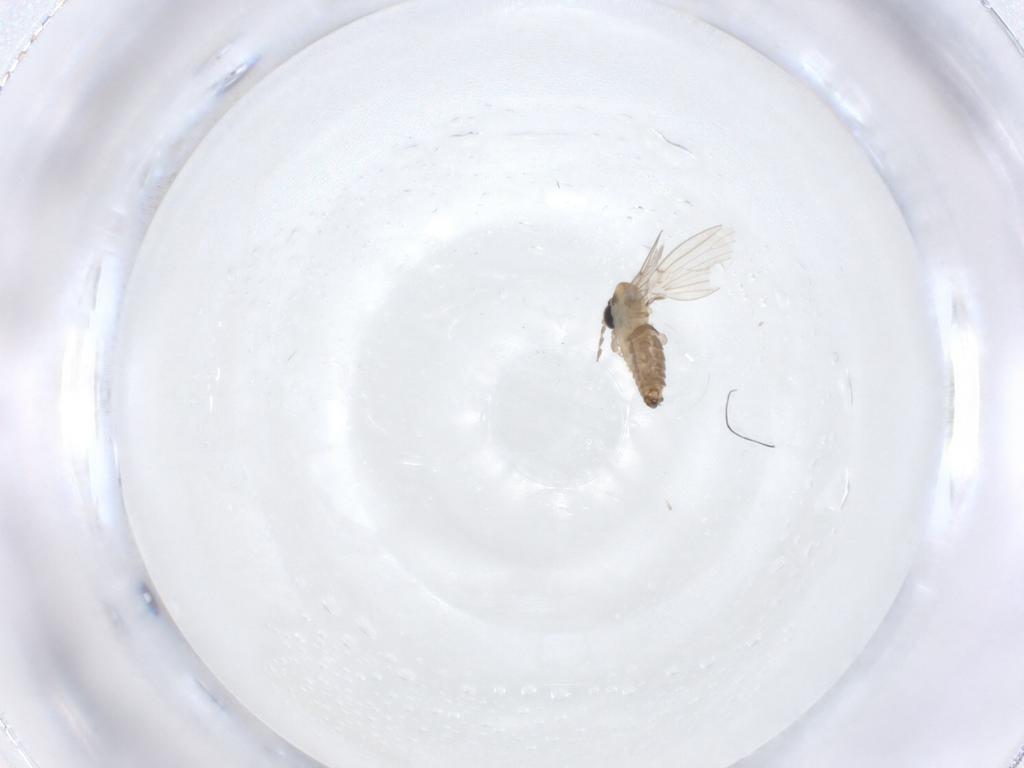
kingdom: Animalia
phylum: Arthropoda
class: Insecta
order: Diptera
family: Psychodidae
